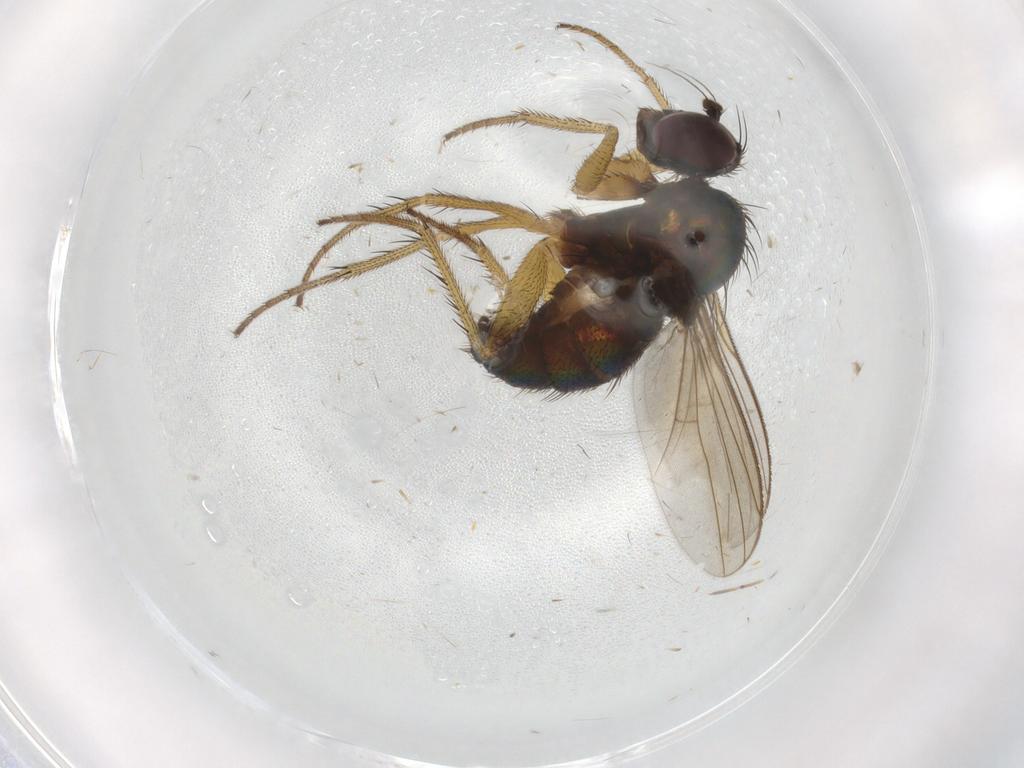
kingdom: Animalia
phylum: Arthropoda
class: Insecta
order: Diptera
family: Dolichopodidae
